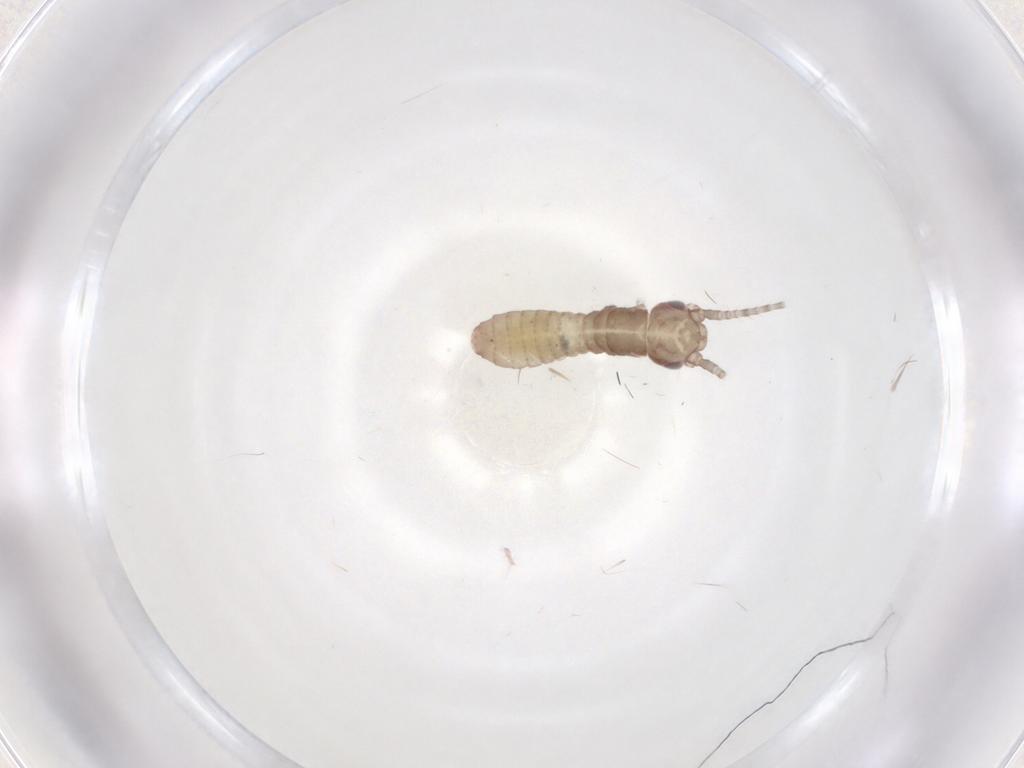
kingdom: Animalia
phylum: Arthropoda
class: Insecta
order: Orthoptera
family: Mogoplistidae
